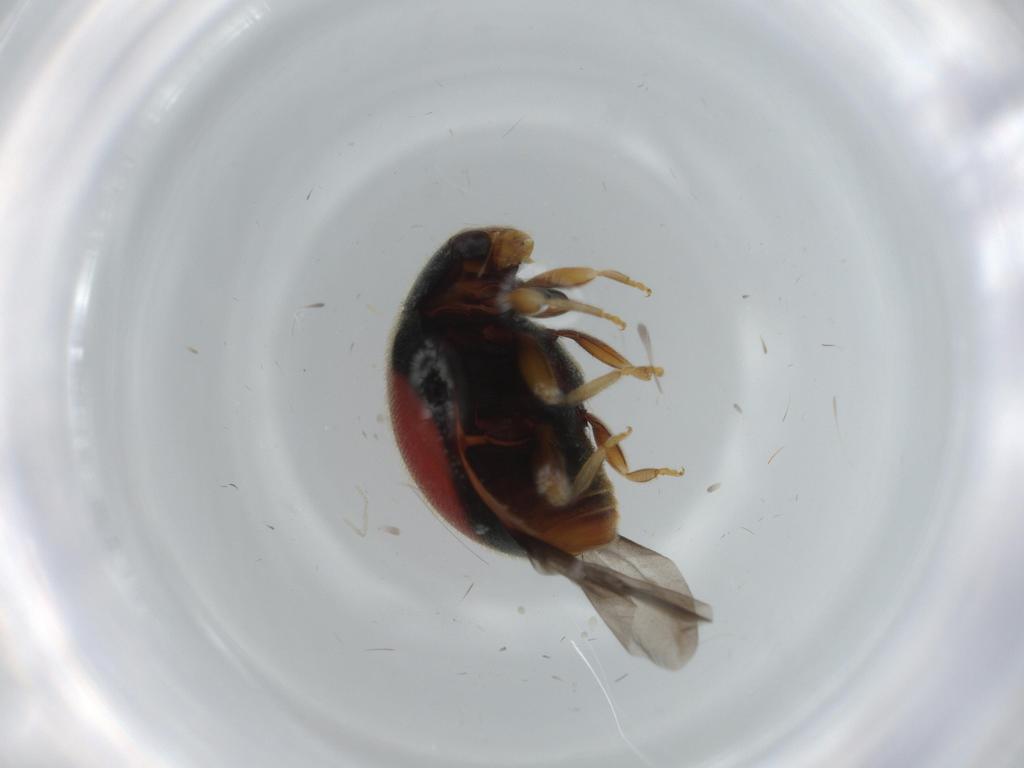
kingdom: Animalia
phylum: Arthropoda
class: Insecta
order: Coleoptera
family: Coccinellidae
